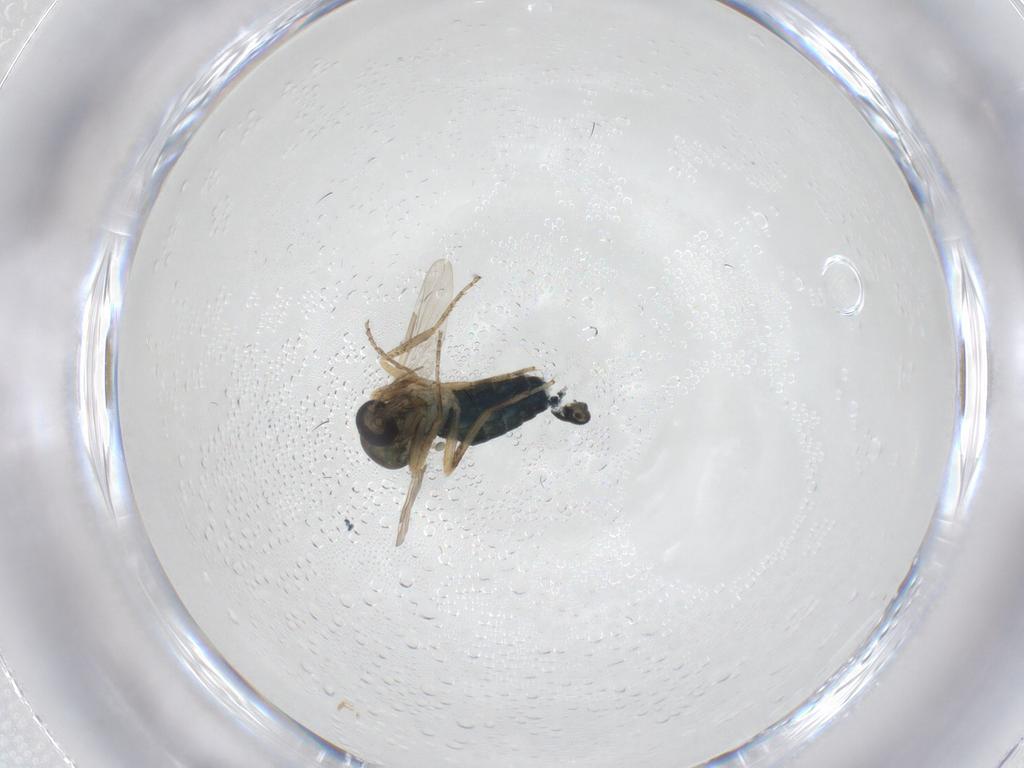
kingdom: Animalia
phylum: Arthropoda
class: Insecta
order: Diptera
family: Cecidomyiidae
